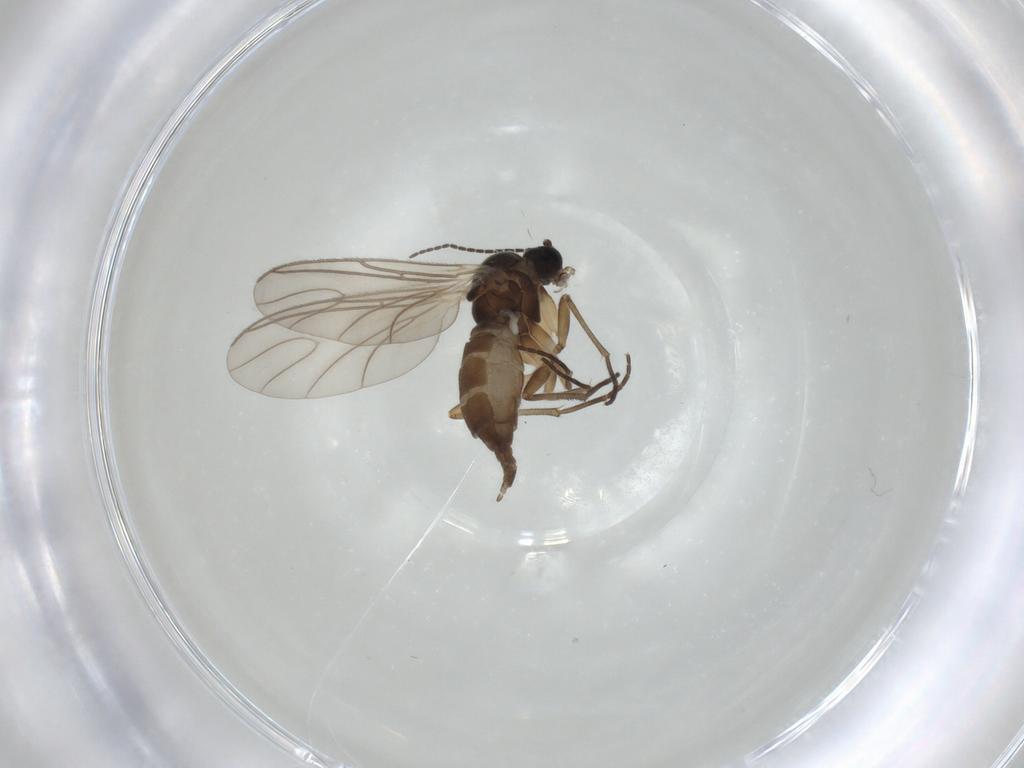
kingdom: Animalia
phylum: Arthropoda
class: Insecta
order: Diptera
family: Sciaridae
